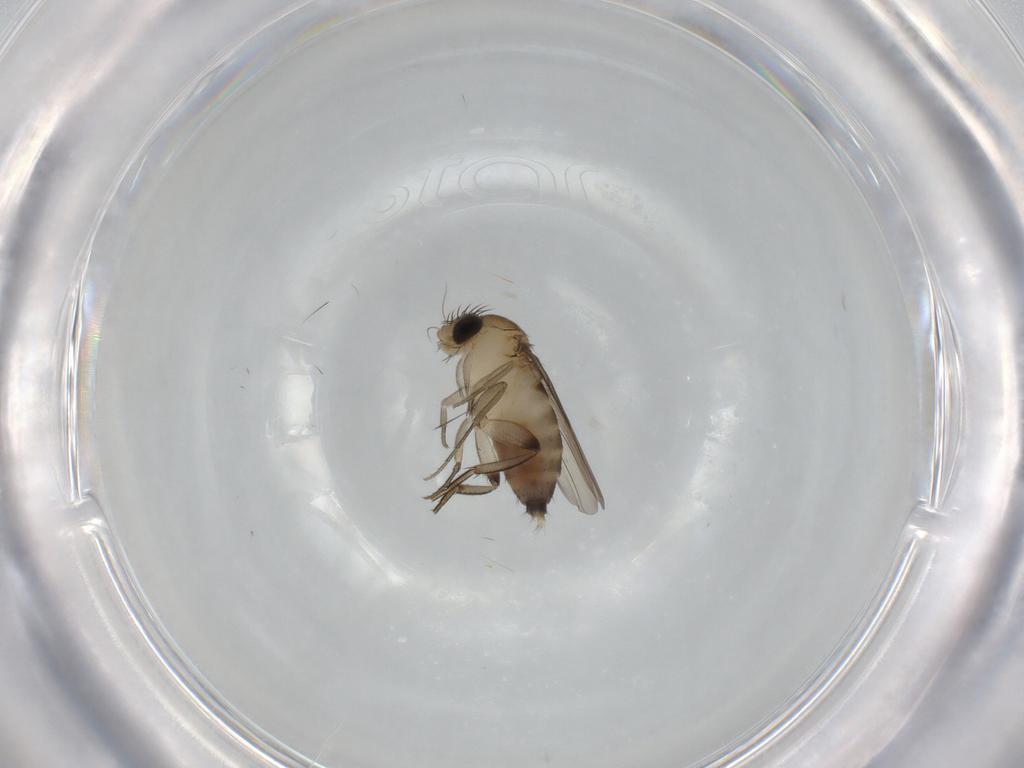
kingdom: Animalia
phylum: Arthropoda
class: Insecta
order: Diptera
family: Phoridae
